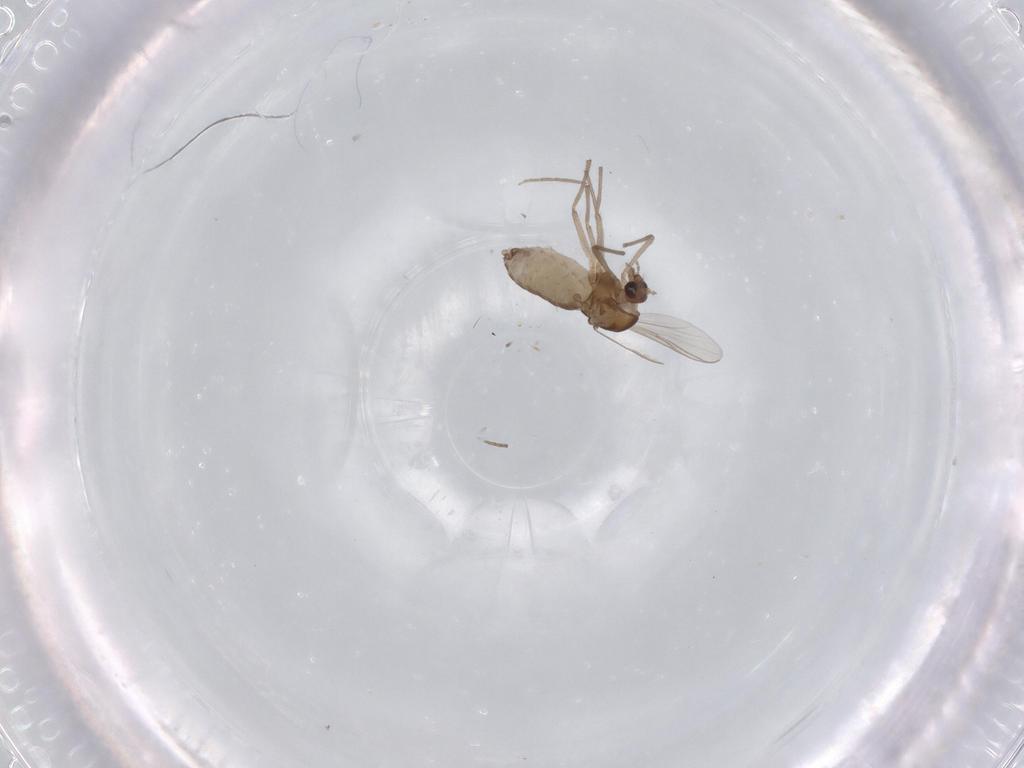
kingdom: Animalia
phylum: Arthropoda
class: Insecta
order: Diptera
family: Chironomidae
